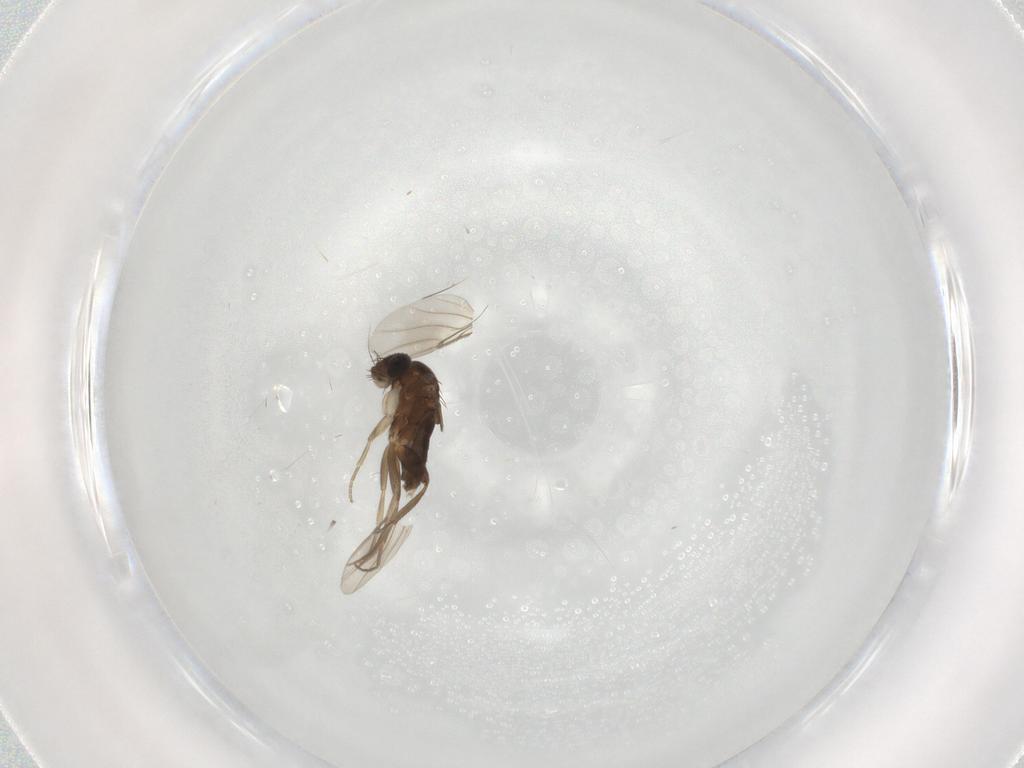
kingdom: Animalia
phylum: Arthropoda
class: Insecta
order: Diptera
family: Phoridae
